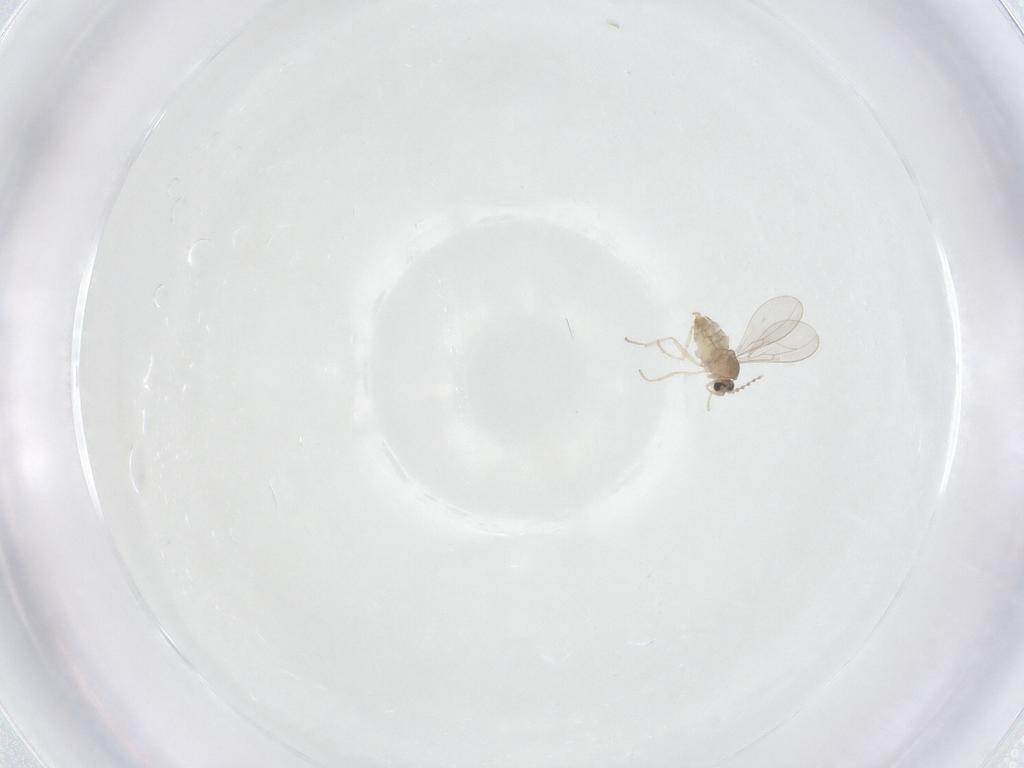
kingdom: Animalia
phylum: Arthropoda
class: Insecta
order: Diptera
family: Cecidomyiidae
